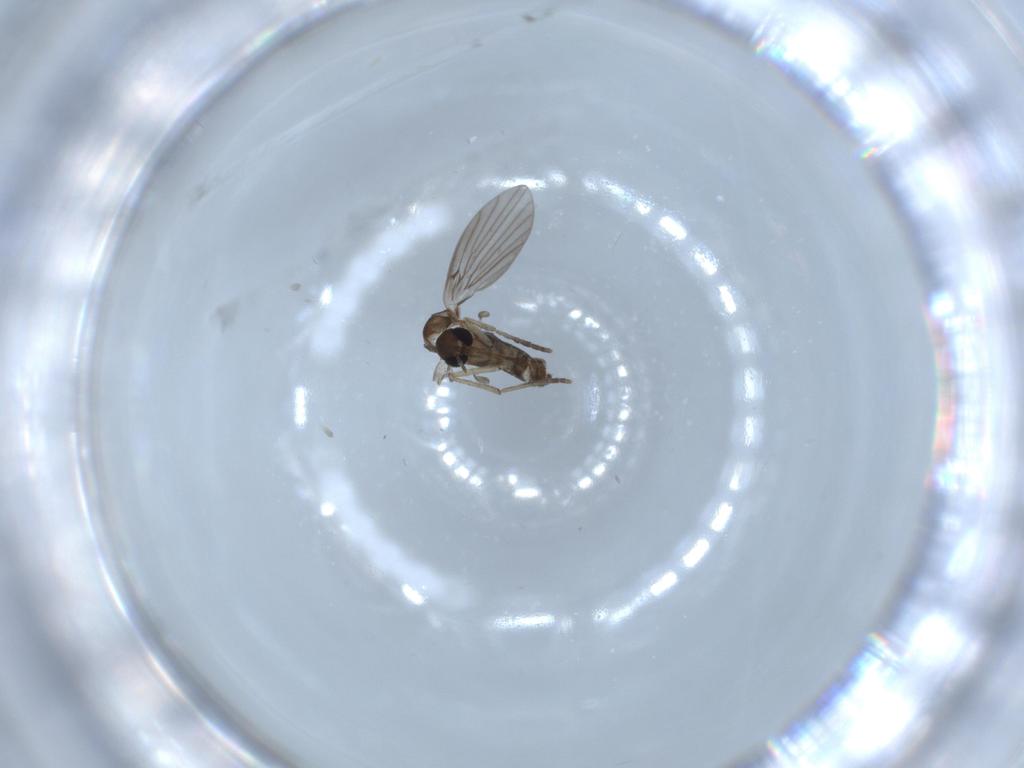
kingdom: Animalia
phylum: Arthropoda
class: Insecta
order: Diptera
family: Psychodidae
